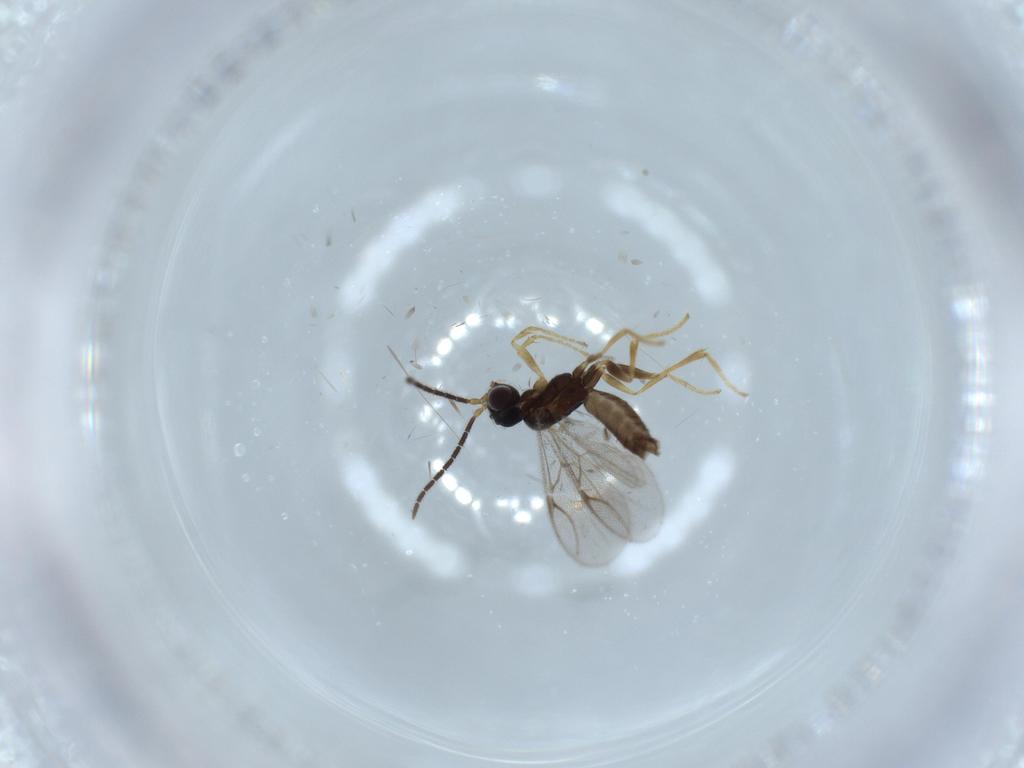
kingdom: Animalia
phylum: Arthropoda
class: Insecta
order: Hymenoptera
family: Dryinidae
